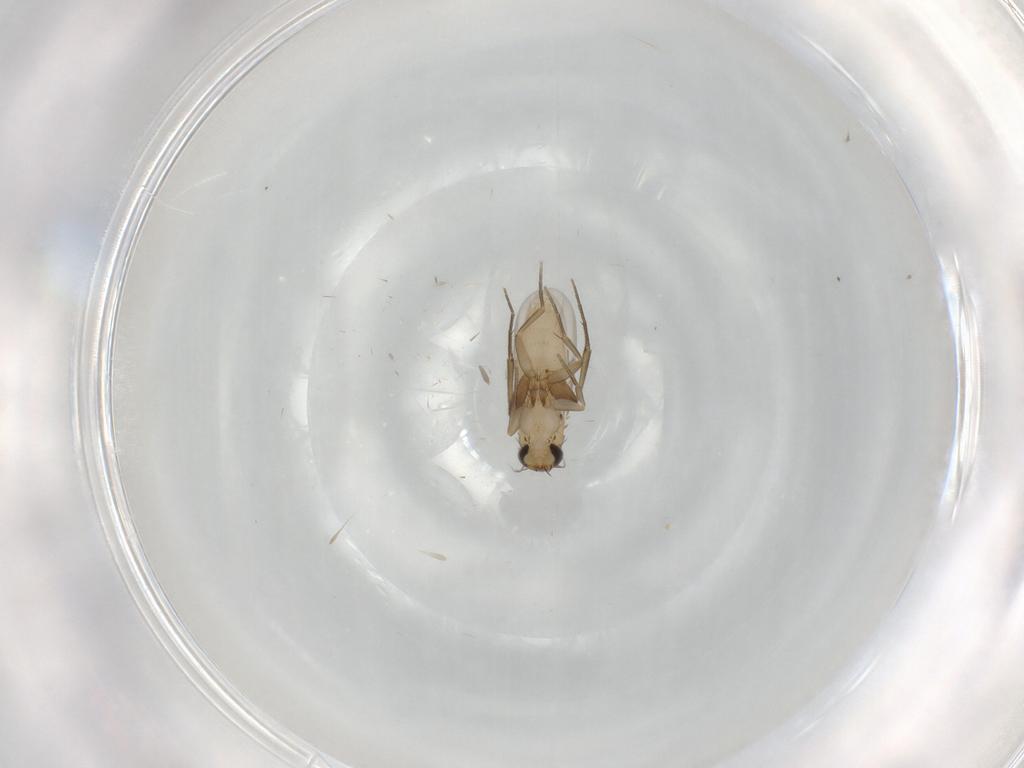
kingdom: Animalia
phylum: Arthropoda
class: Insecta
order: Diptera
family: Phoridae
